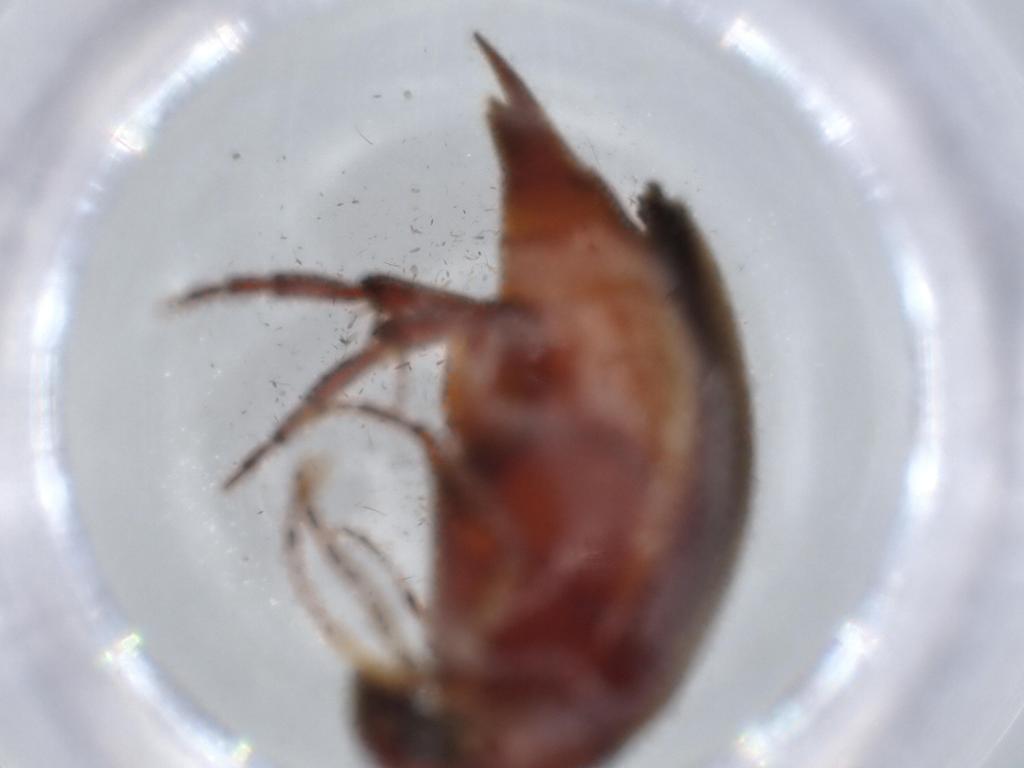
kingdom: Animalia
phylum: Arthropoda
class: Insecta
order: Coleoptera
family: Mordellidae
